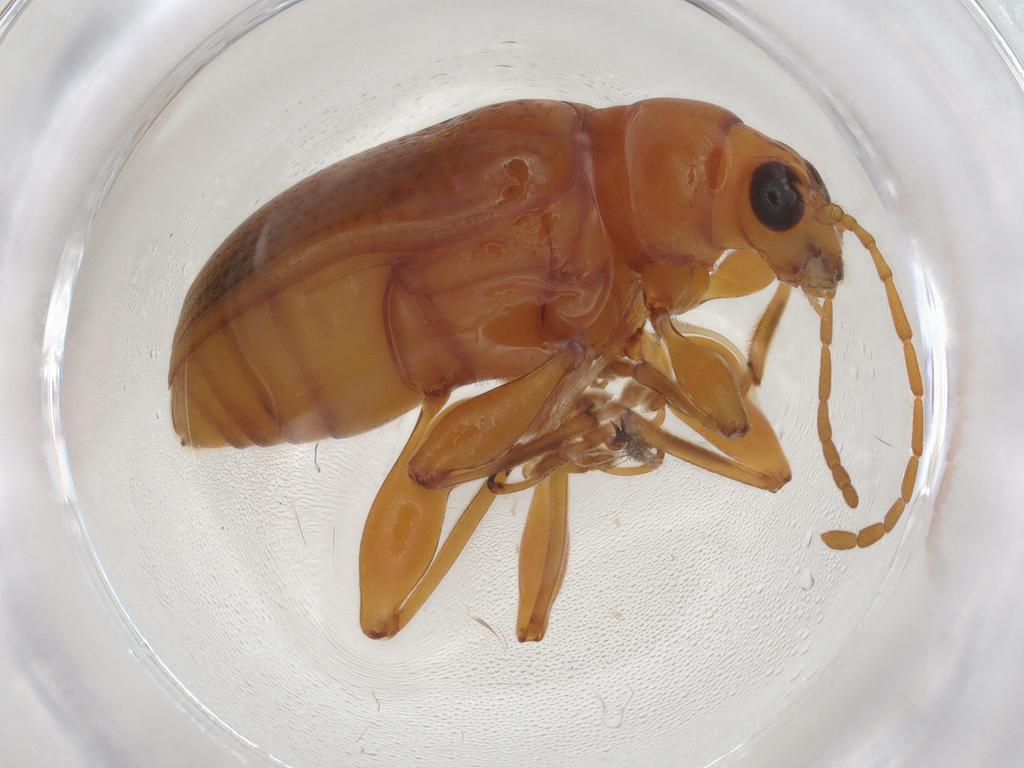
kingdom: Animalia
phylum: Arthropoda
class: Insecta
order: Coleoptera
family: Chrysomelidae
